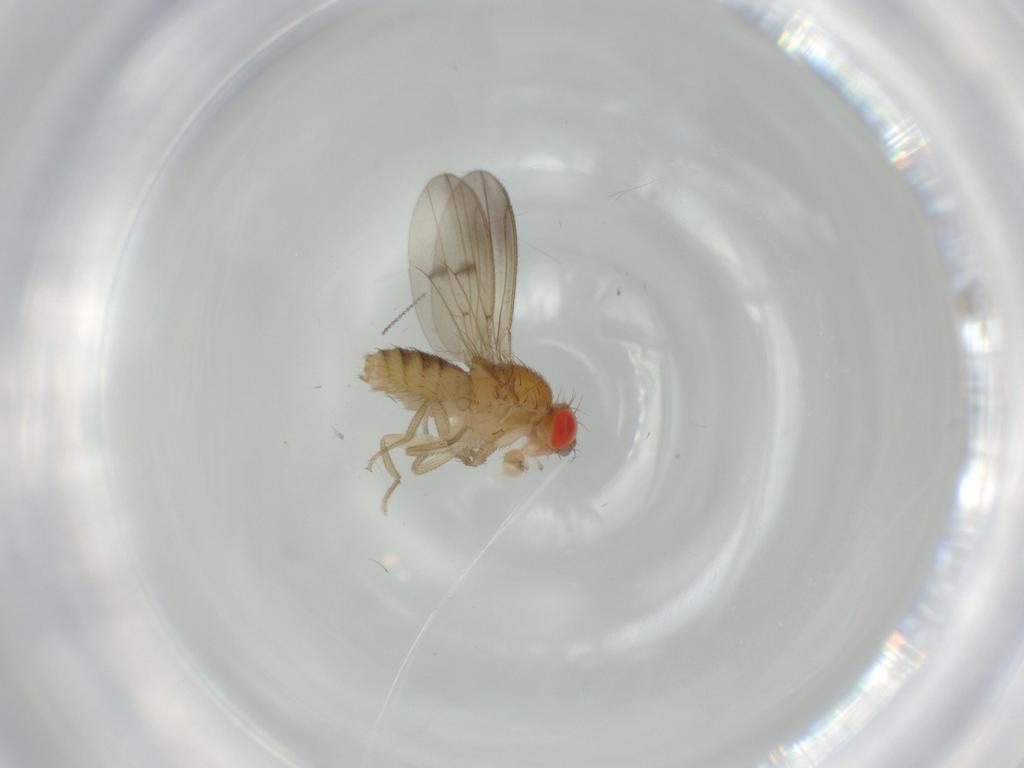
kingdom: Animalia
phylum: Arthropoda
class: Insecta
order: Diptera
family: Drosophilidae
